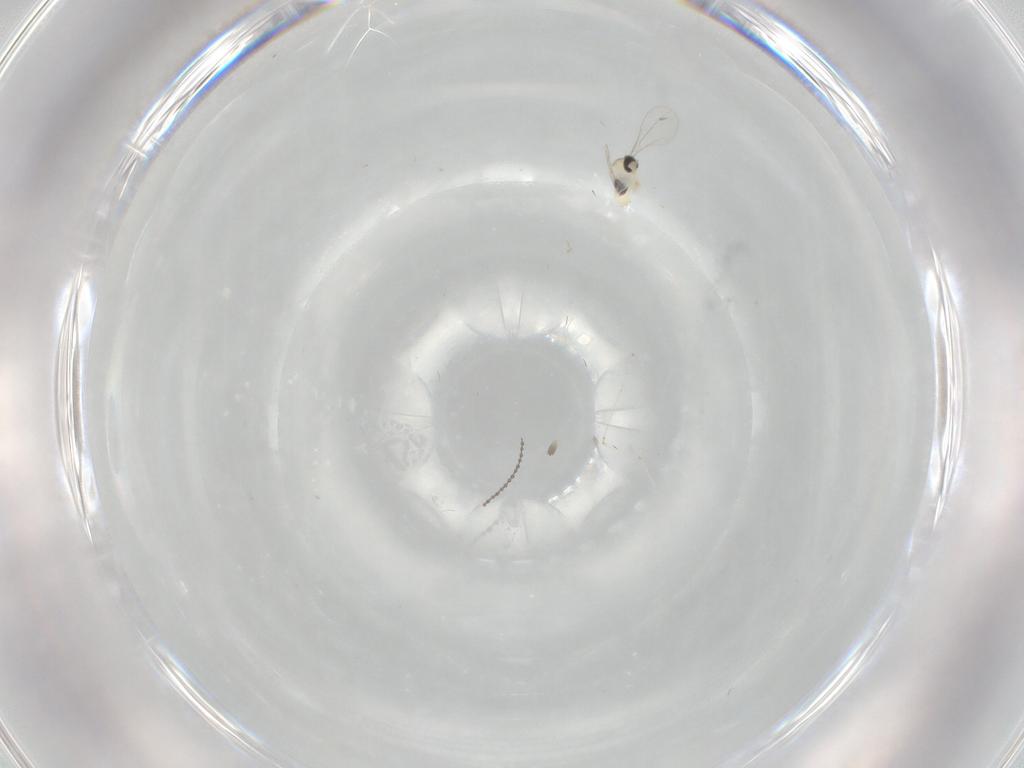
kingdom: Animalia
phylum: Arthropoda
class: Insecta
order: Diptera
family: Cecidomyiidae
